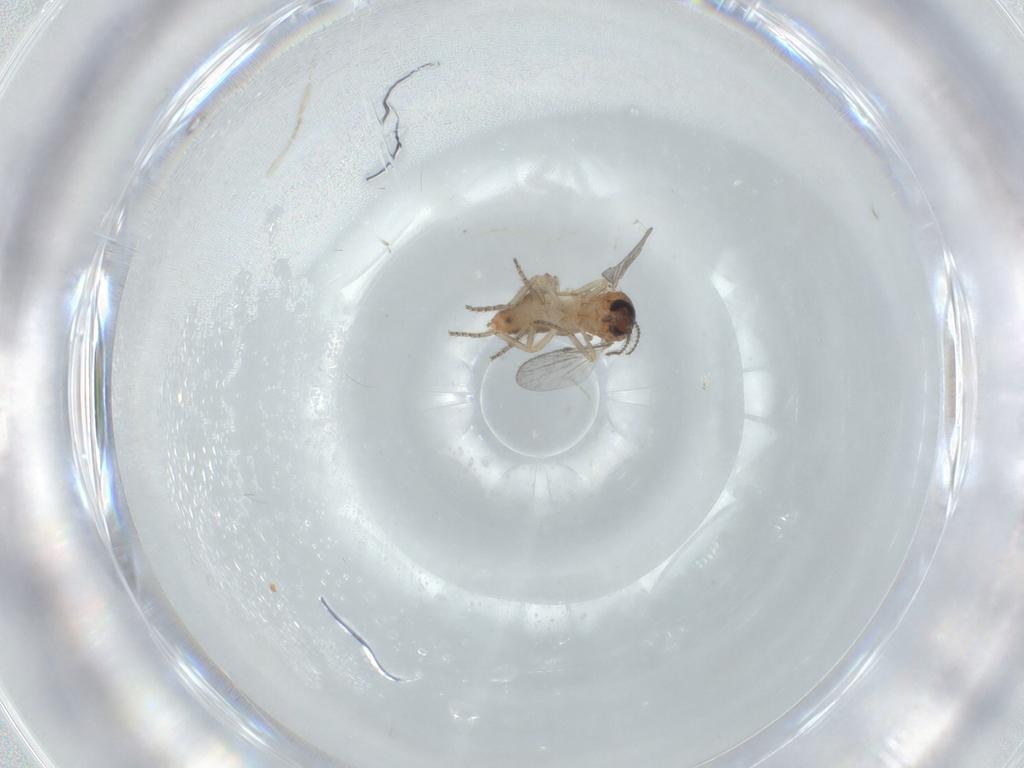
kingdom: Animalia
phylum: Arthropoda
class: Insecta
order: Diptera
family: Ceratopogonidae
